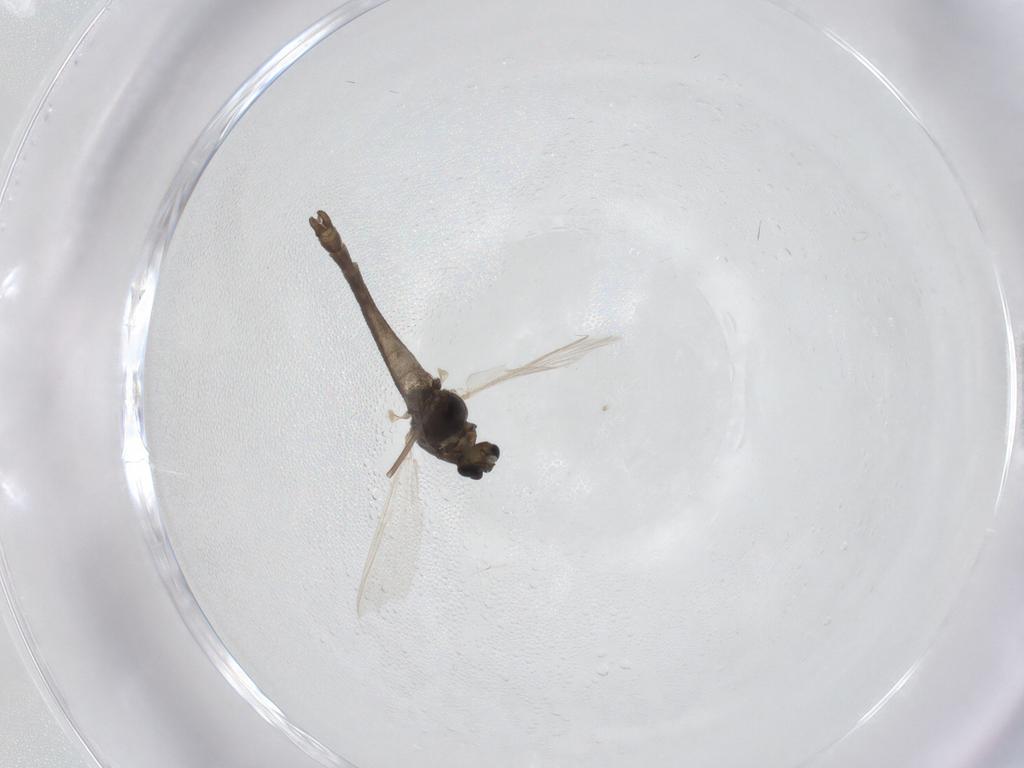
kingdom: Animalia
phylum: Arthropoda
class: Insecta
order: Diptera
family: Chironomidae
